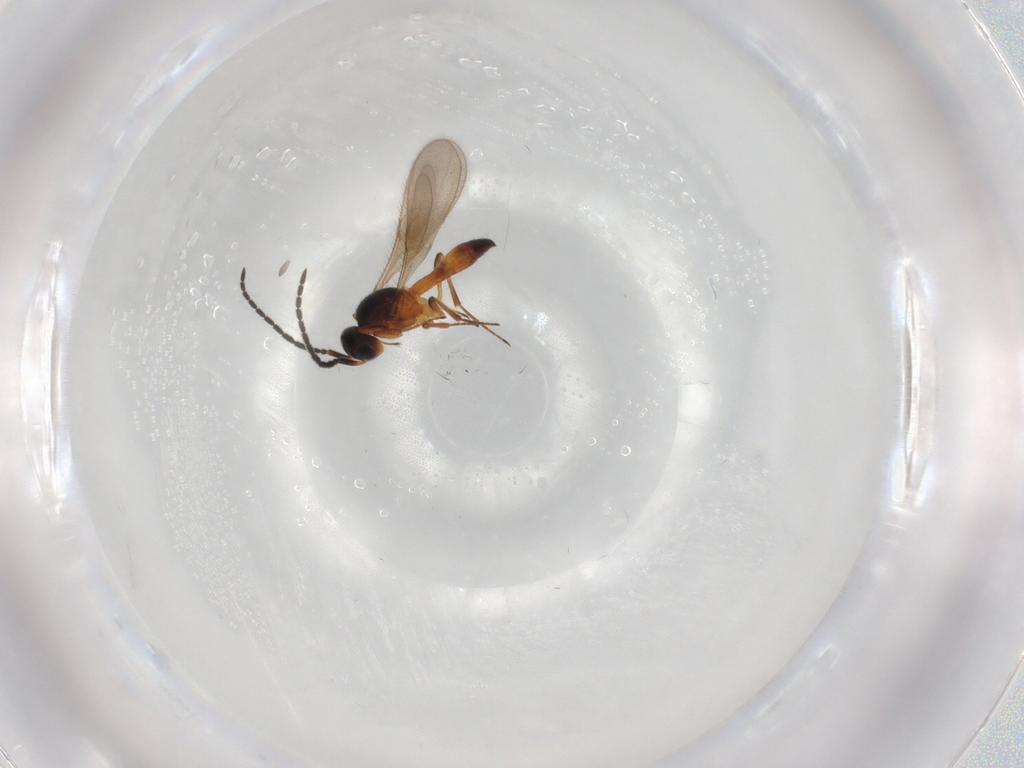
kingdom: Animalia
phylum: Arthropoda
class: Insecta
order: Hymenoptera
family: Scelionidae
